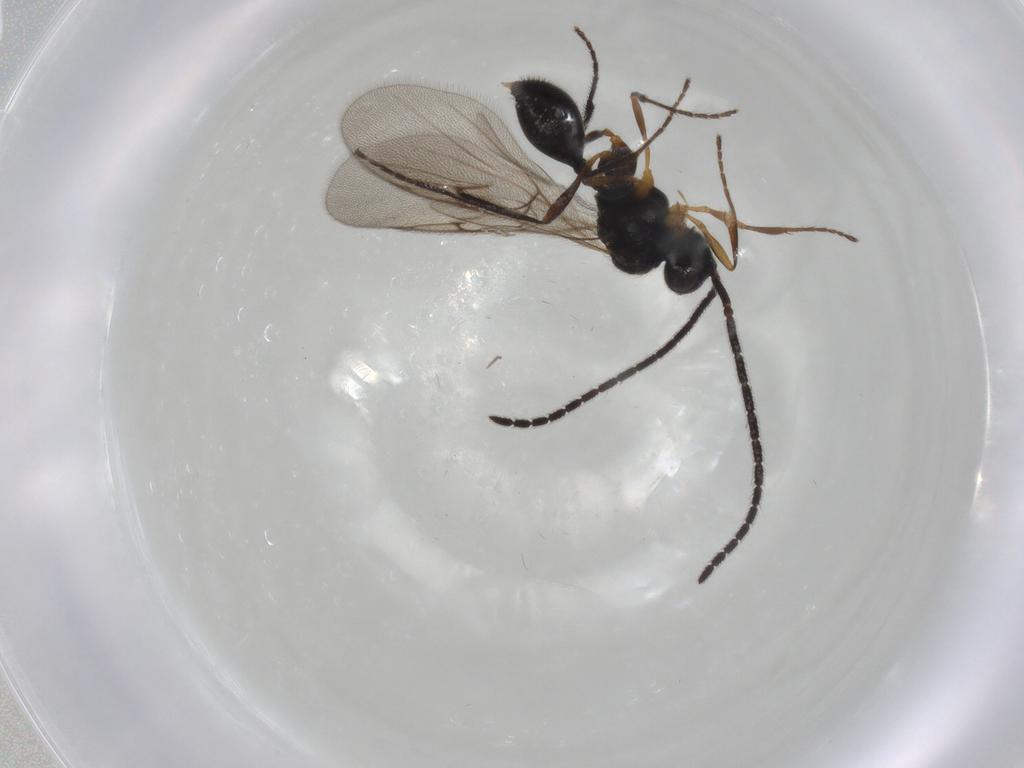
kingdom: Animalia
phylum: Arthropoda
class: Insecta
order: Hymenoptera
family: Diapriidae
